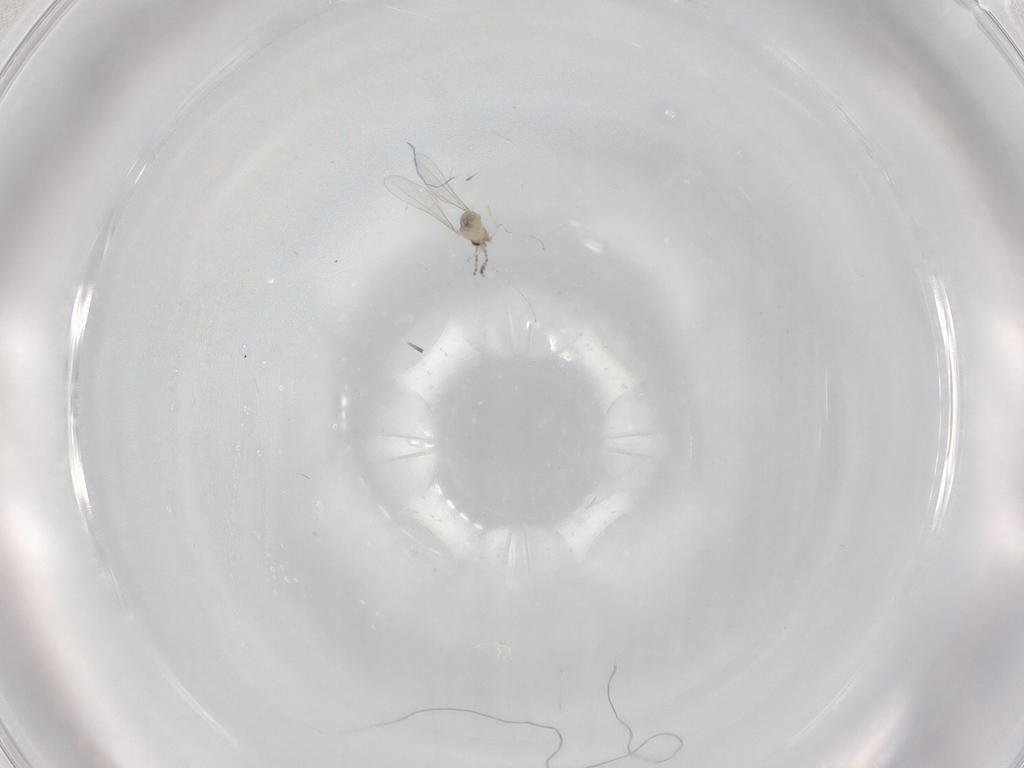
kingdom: Animalia
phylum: Arthropoda
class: Insecta
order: Diptera
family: Cecidomyiidae
